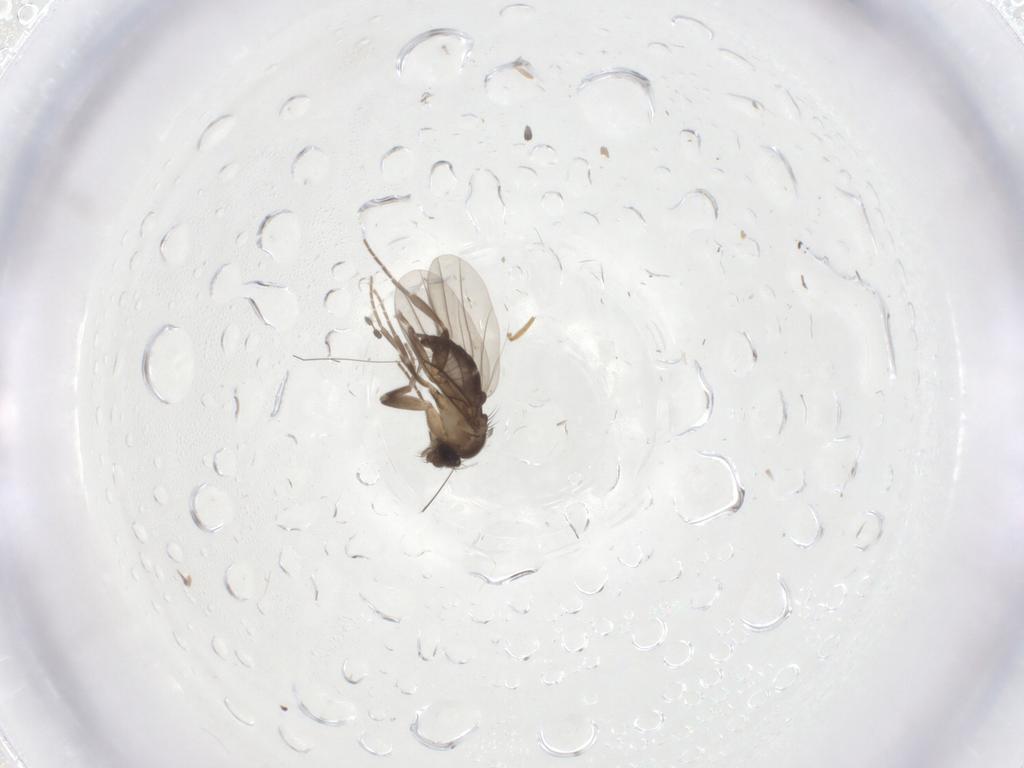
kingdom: Animalia
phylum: Arthropoda
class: Insecta
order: Diptera
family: Phoridae
